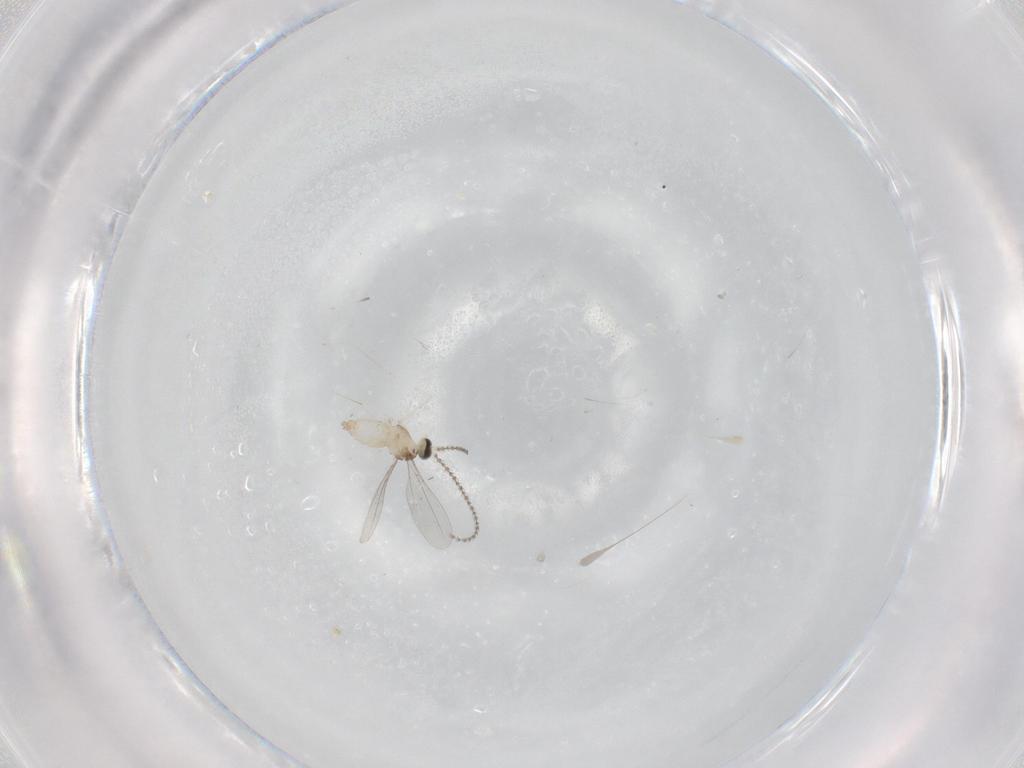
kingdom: Animalia
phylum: Arthropoda
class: Insecta
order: Diptera
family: Cecidomyiidae
